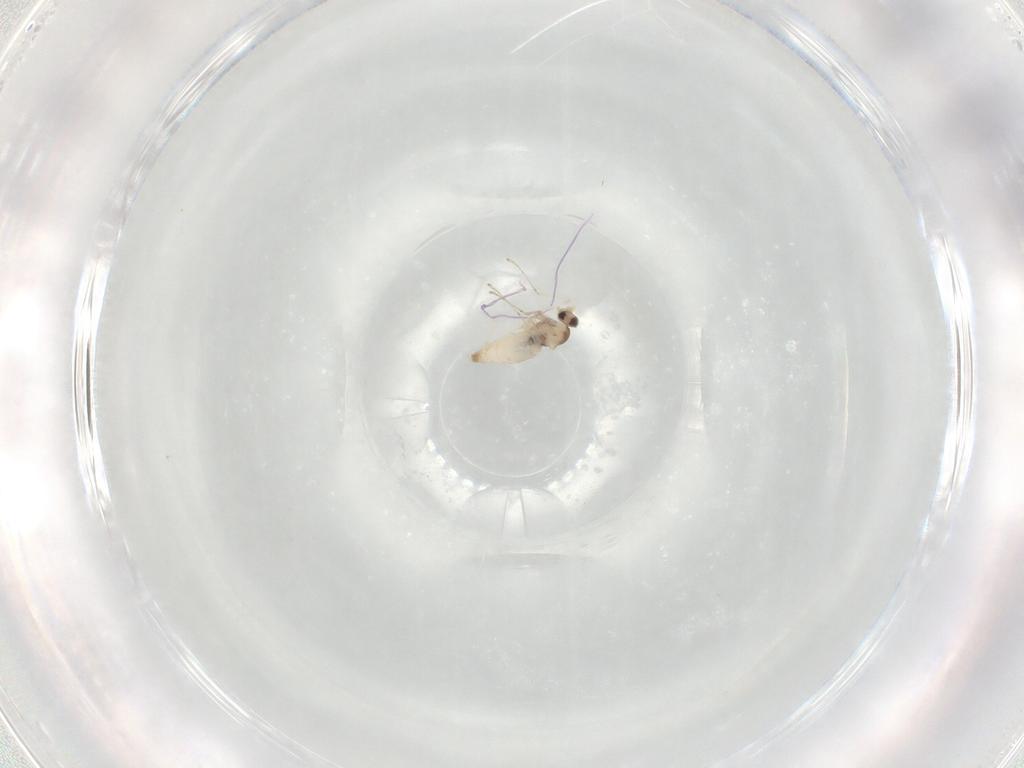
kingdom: Animalia
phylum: Arthropoda
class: Insecta
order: Diptera
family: Cecidomyiidae
